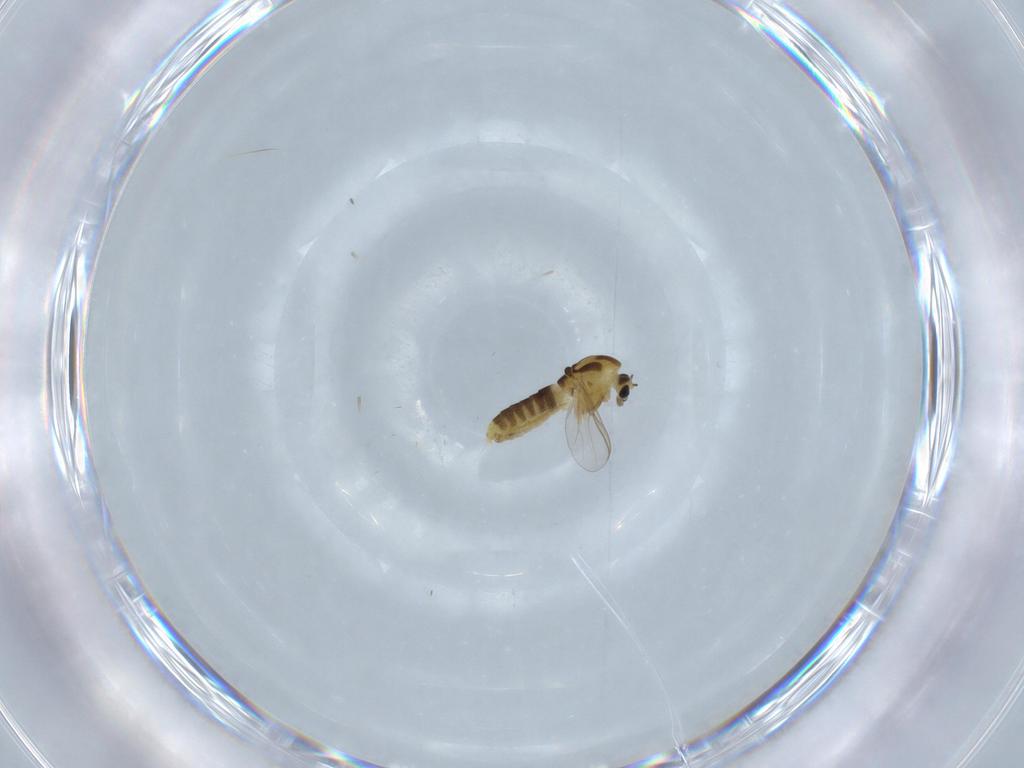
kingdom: Animalia
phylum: Arthropoda
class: Insecta
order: Diptera
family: Chironomidae
